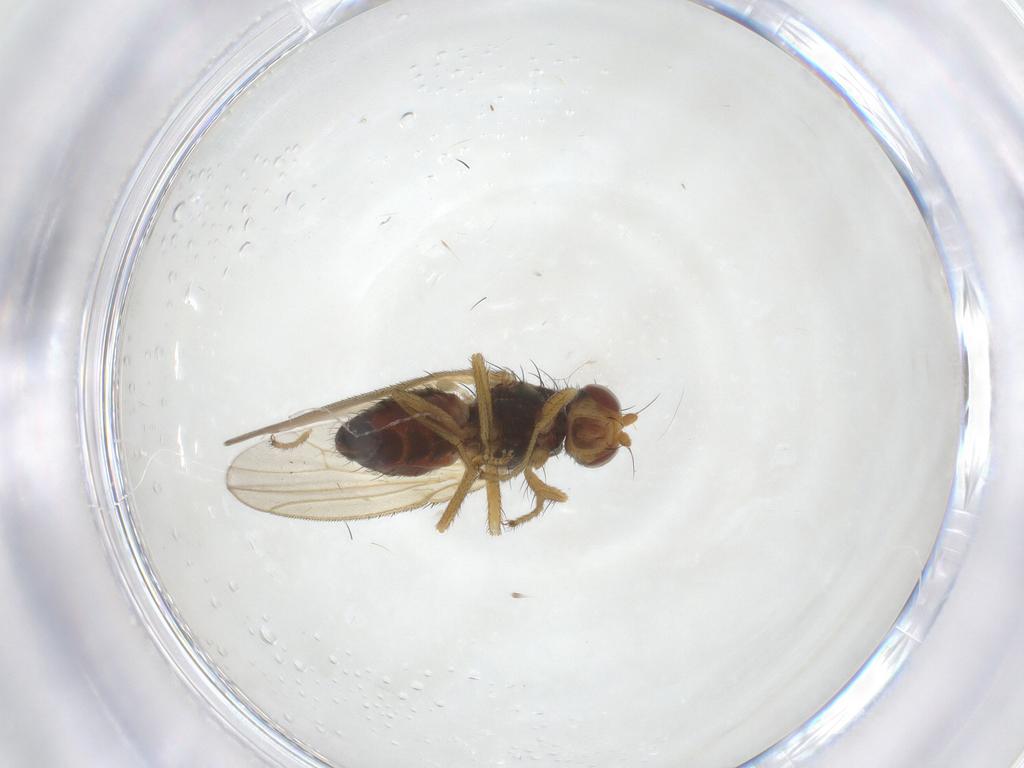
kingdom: Animalia
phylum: Arthropoda
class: Insecta
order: Diptera
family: Heleomyzidae
